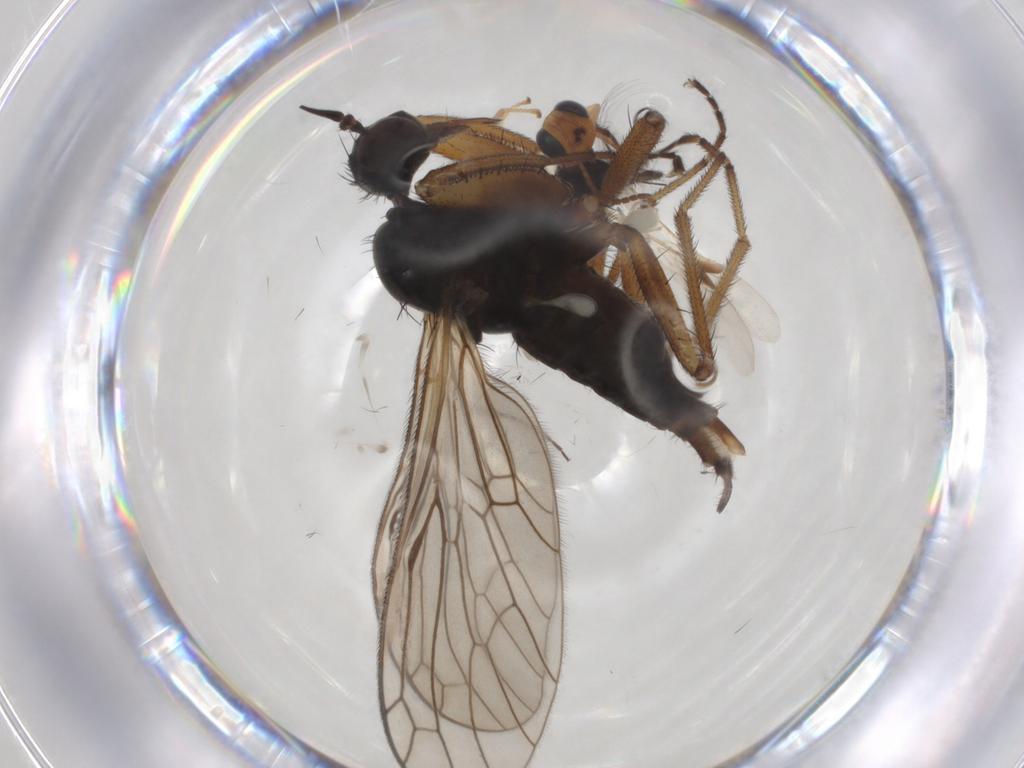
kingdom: Animalia
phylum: Arthropoda
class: Insecta
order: Diptera
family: Empididae
